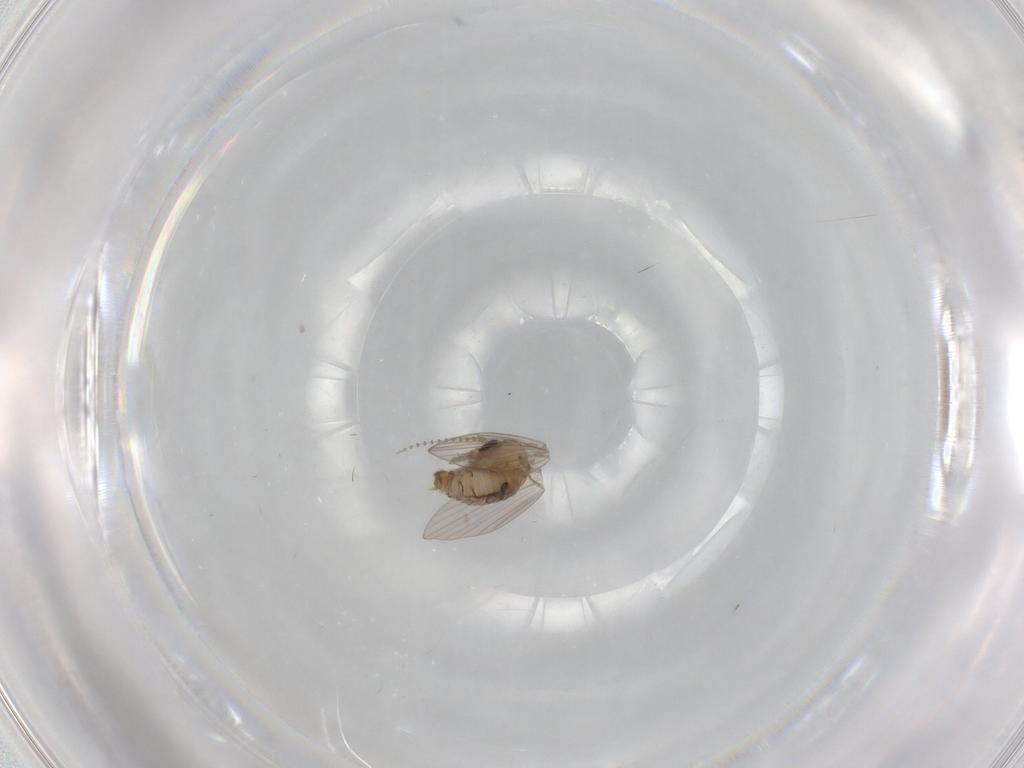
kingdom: Animalia
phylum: Arthropoda
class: Insecta
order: Diptera
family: Psychodidae
